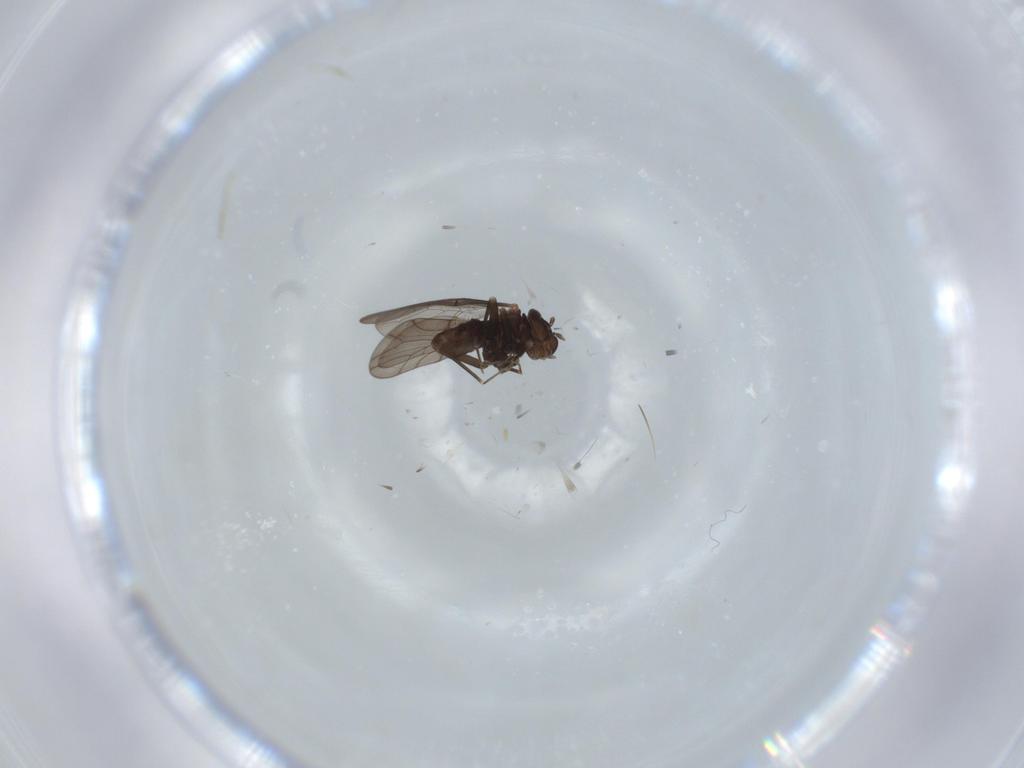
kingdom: Animalia
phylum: Arthropoda
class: Insecta
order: Psocodea
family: Lepidopsocidae
